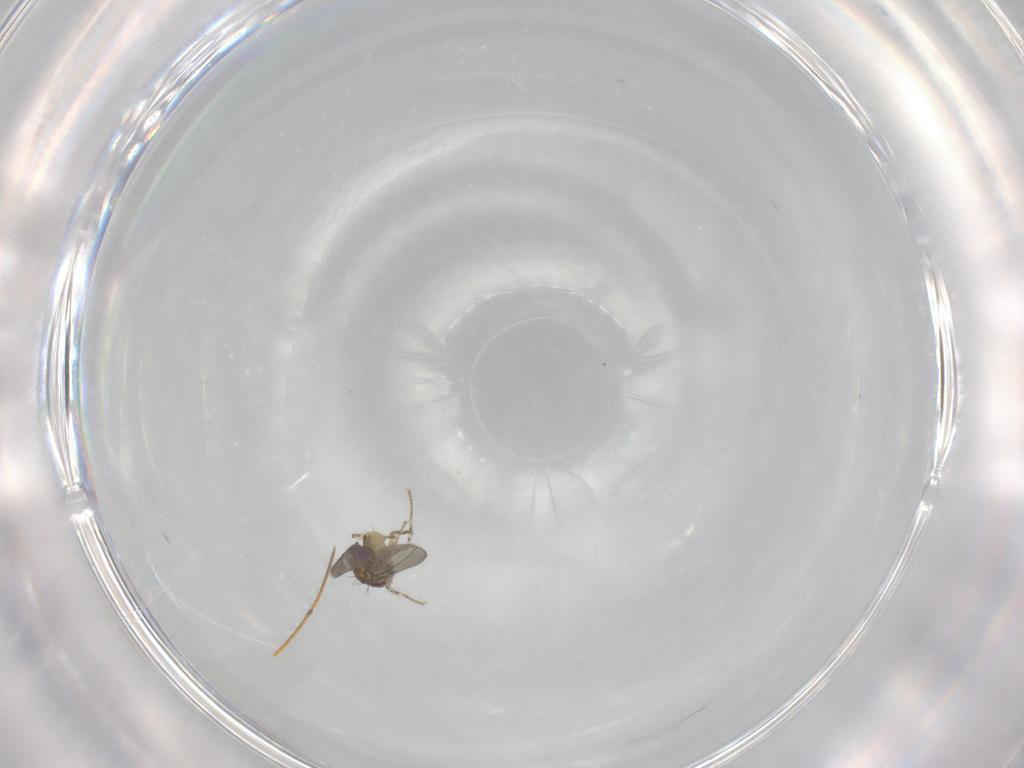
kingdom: Animalia
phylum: Arthropoda
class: Insecta
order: Diptera
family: Asteiidae
